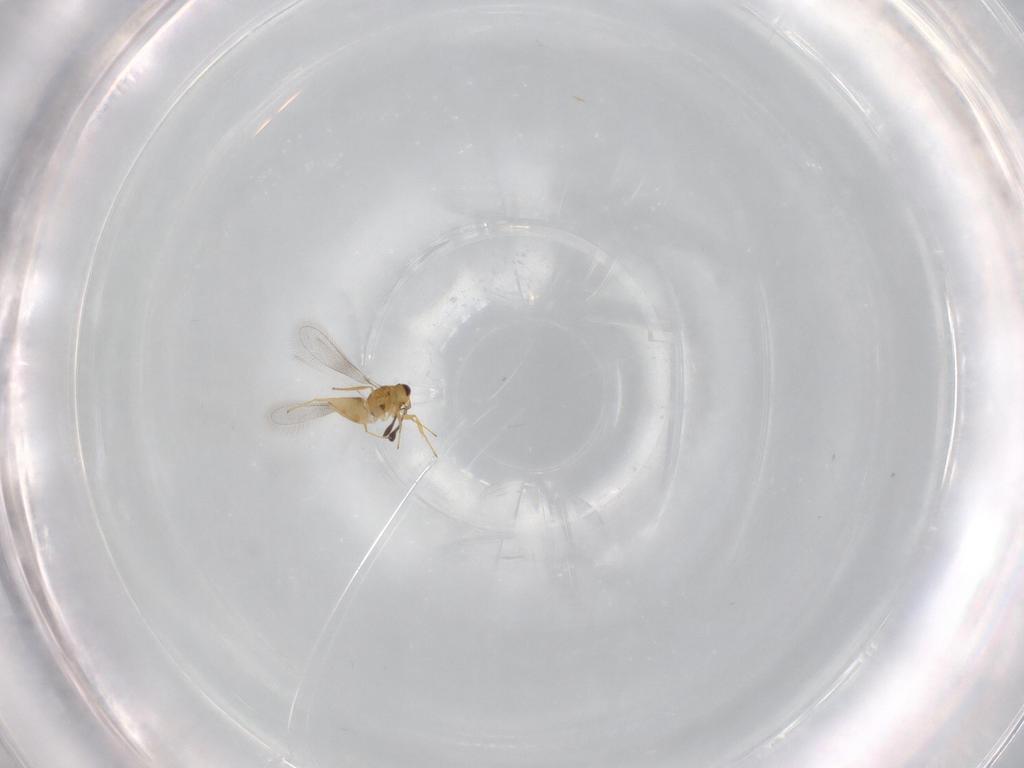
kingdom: Animalia
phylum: Arthropoda
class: Insecta
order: Hymenoptera
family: Mymaridae
